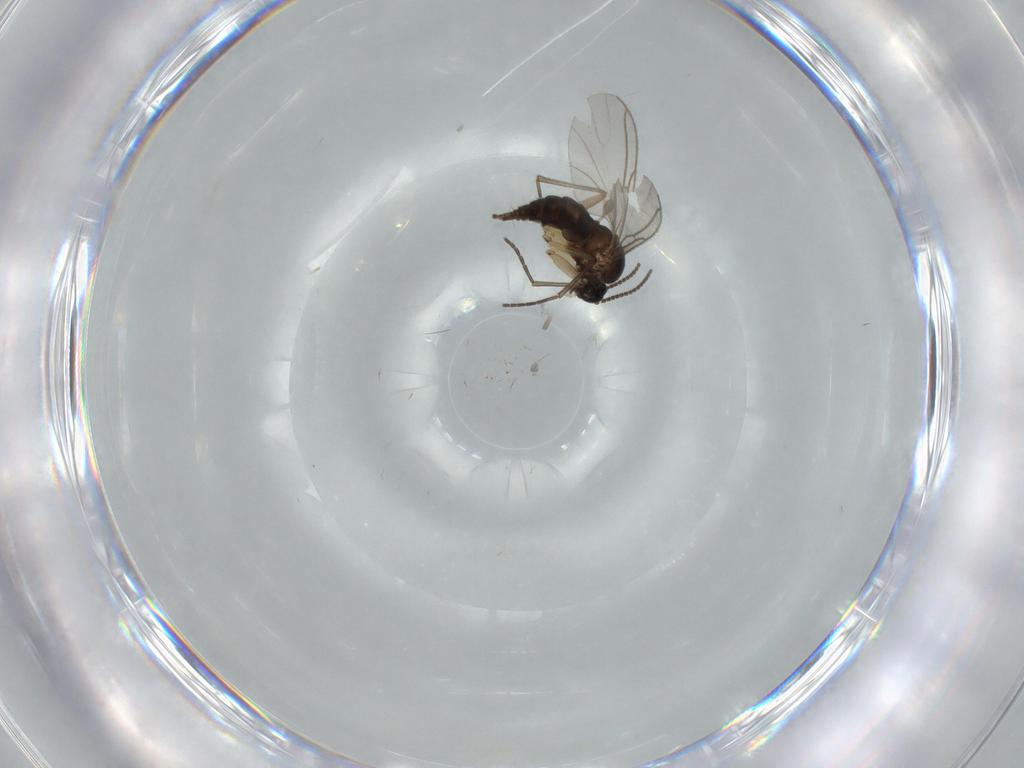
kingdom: Animalia
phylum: Arthropoda
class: Insecta
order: Diptera
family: Sciaridae
